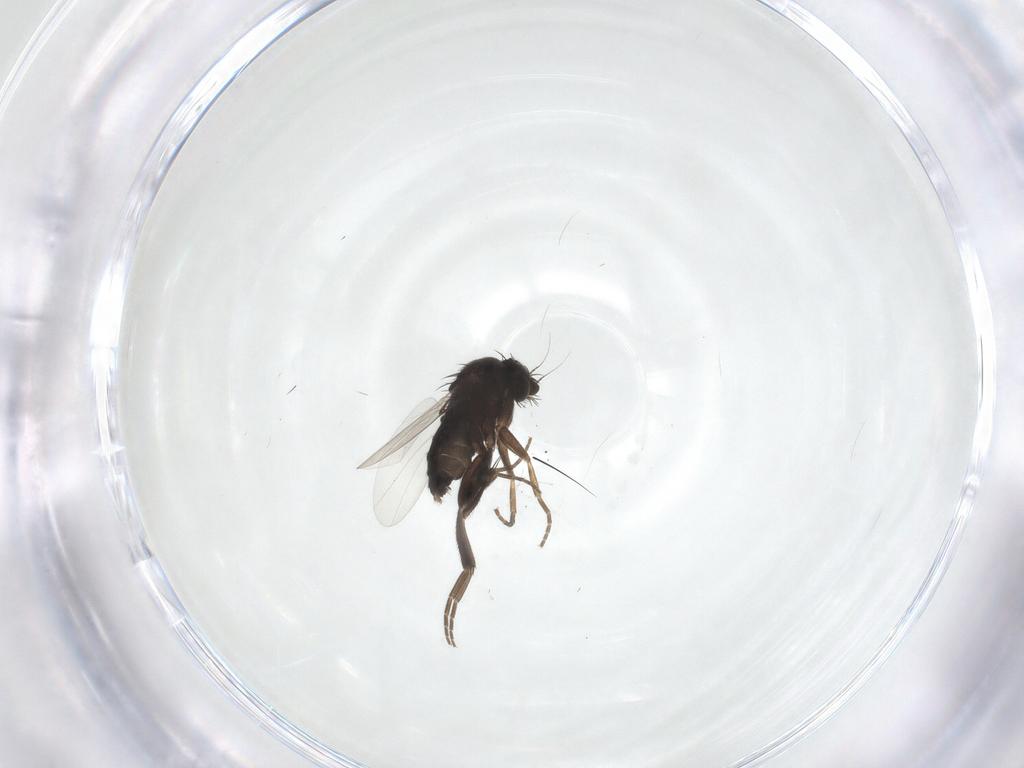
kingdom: Animalia
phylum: Arthropoda
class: Insecta
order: Diptera
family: Phoridae
